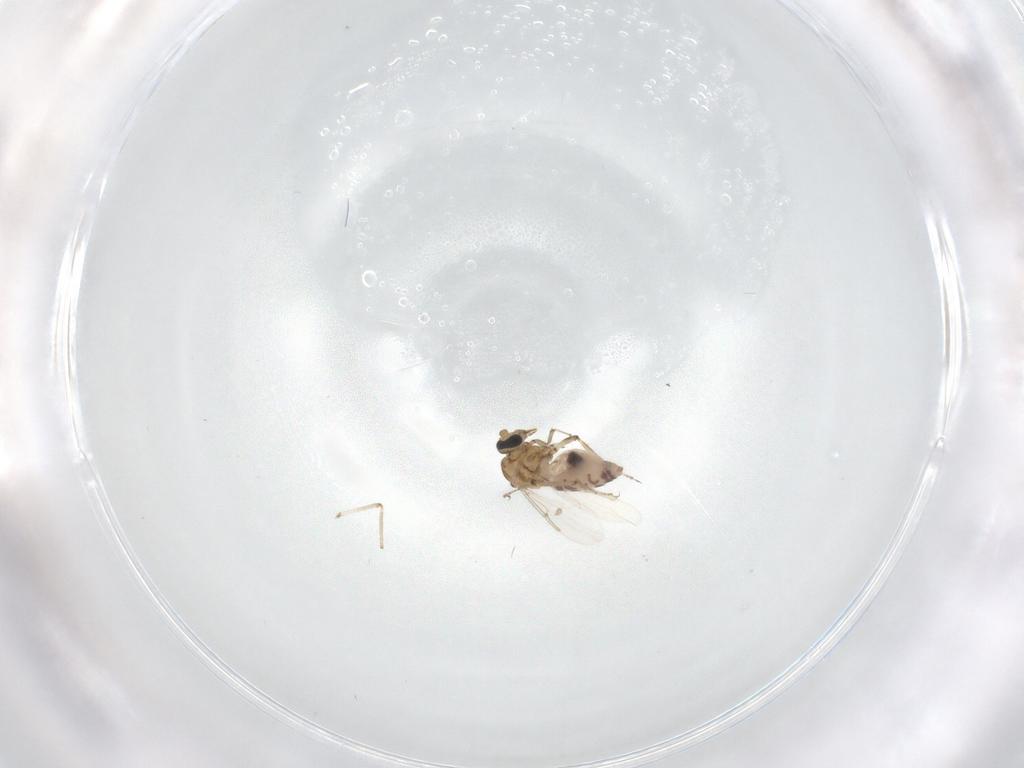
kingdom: Animalia
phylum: Arthropoda
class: Insecta
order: Diptera
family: Ceratopogonidae
